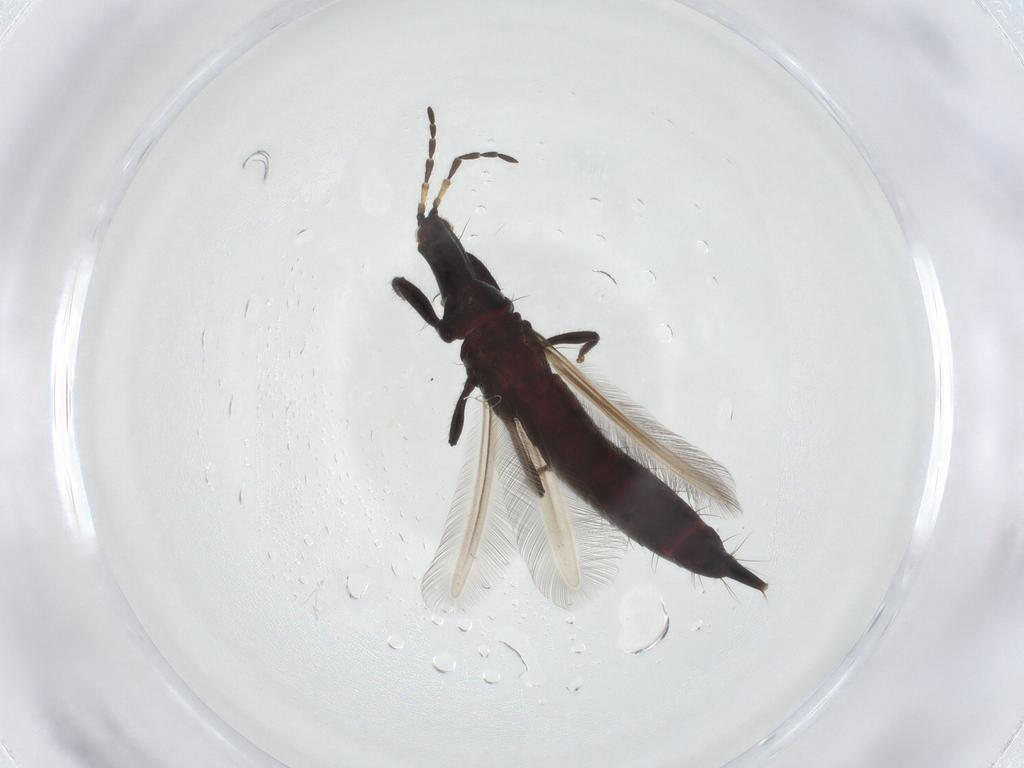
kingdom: Animalia
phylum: Arthropoda
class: Insecta
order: Thysanoptera
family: Phlaeothripidae
